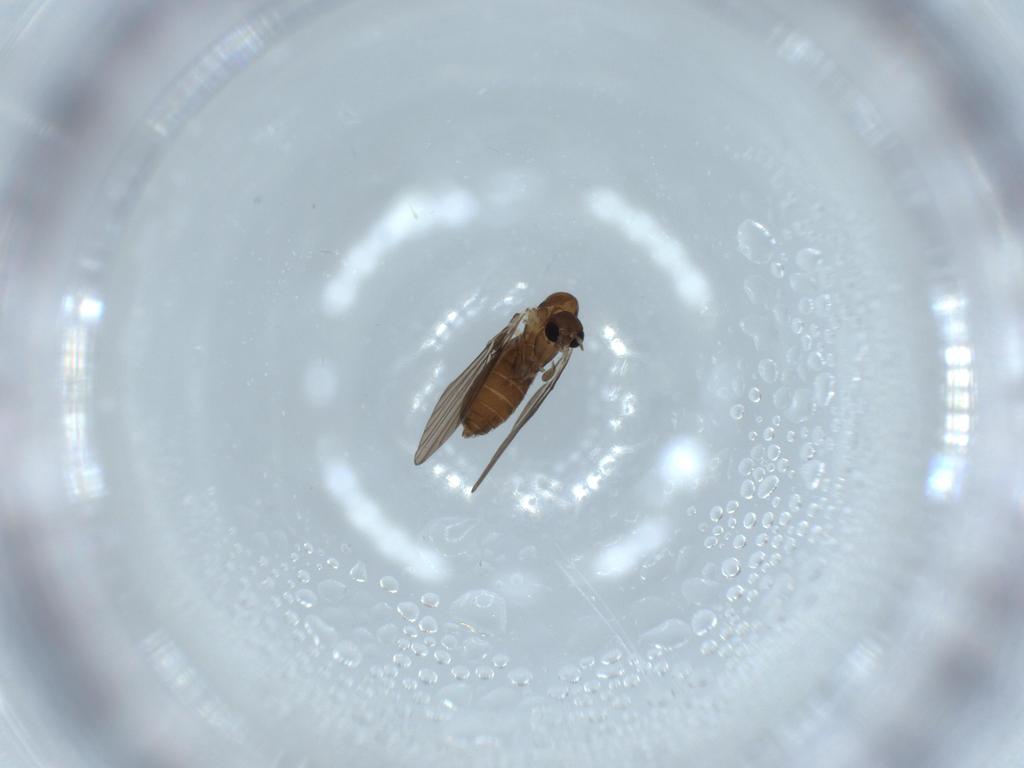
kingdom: Animalia
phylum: Arthropoda
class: Insecta
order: Diptera
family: Psychodidae
